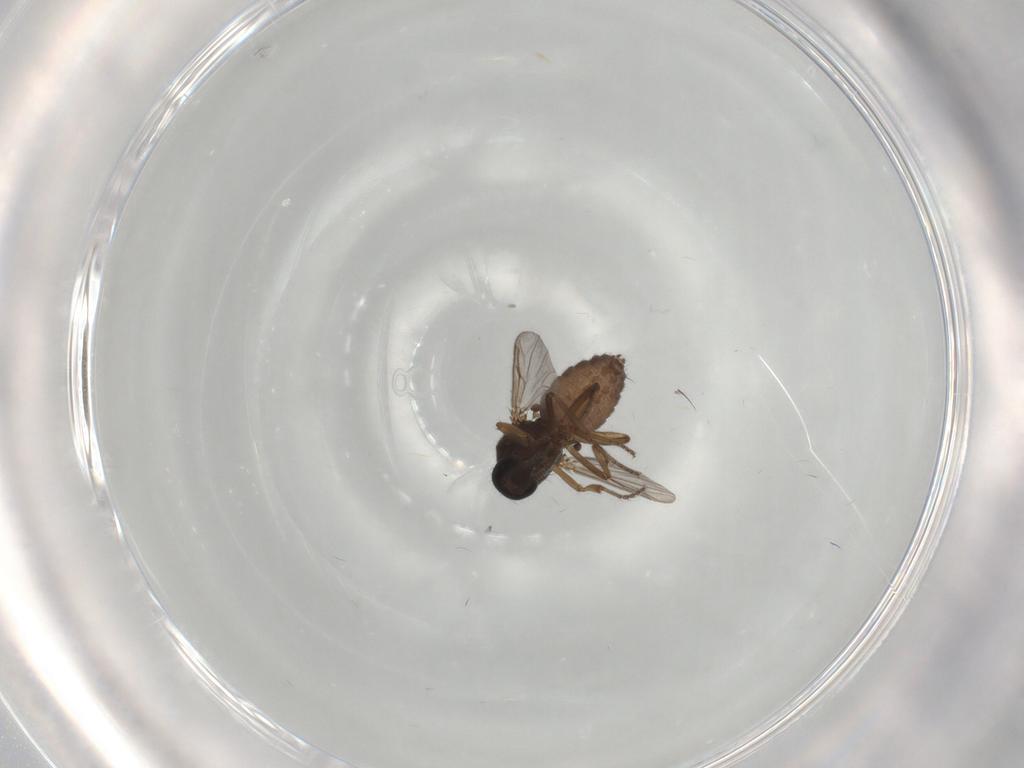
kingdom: Animalia
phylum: Arthropoda
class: Insecta
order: Diptera
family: Ceratopogonidae
